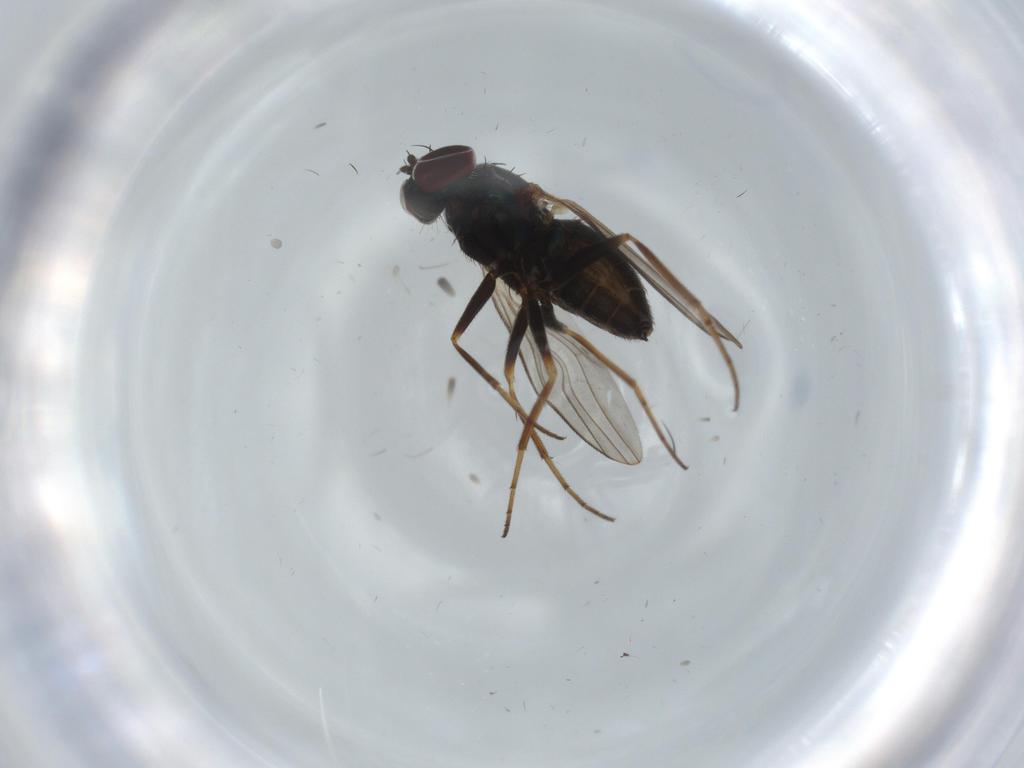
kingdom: Animalia
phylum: Arthropoda
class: Insecta
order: Diptera
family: Dolichopodidae
